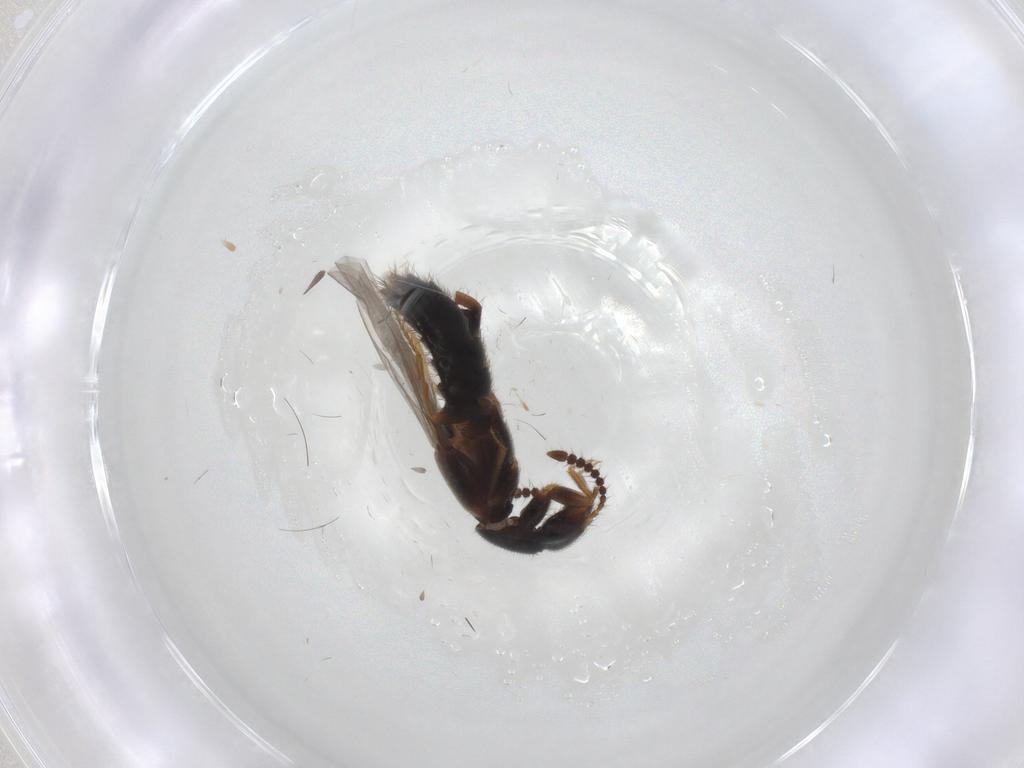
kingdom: Animalia
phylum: Arthropoda
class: Insecta
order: Coleoptera
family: Staphylinidae
